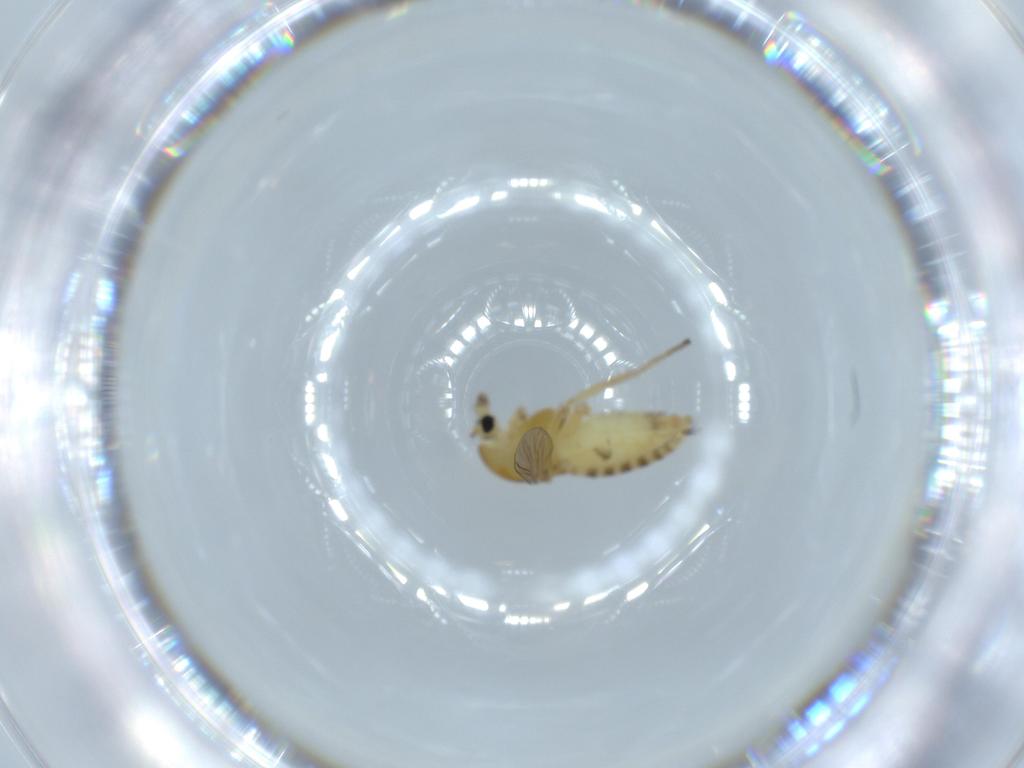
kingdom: Animalia
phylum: Arthropoda
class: Insecta
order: Diptera
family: Chironomidae
